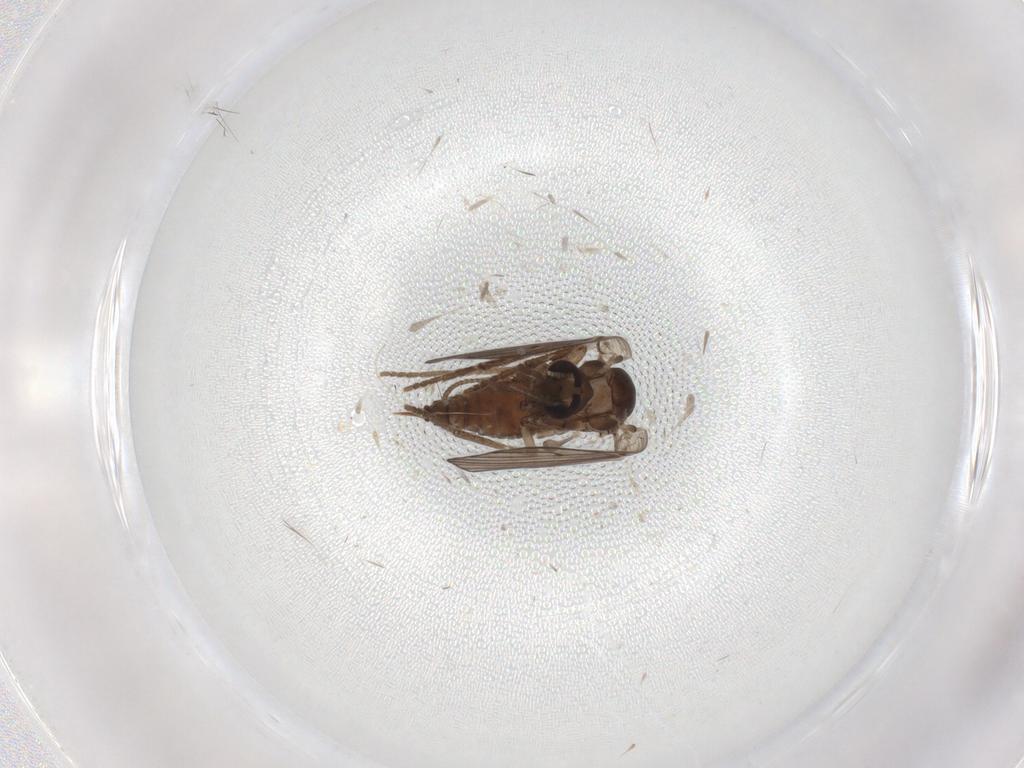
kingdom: Animalia
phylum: Arthropoda
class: Insecta
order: Diptera
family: Psychodidae
